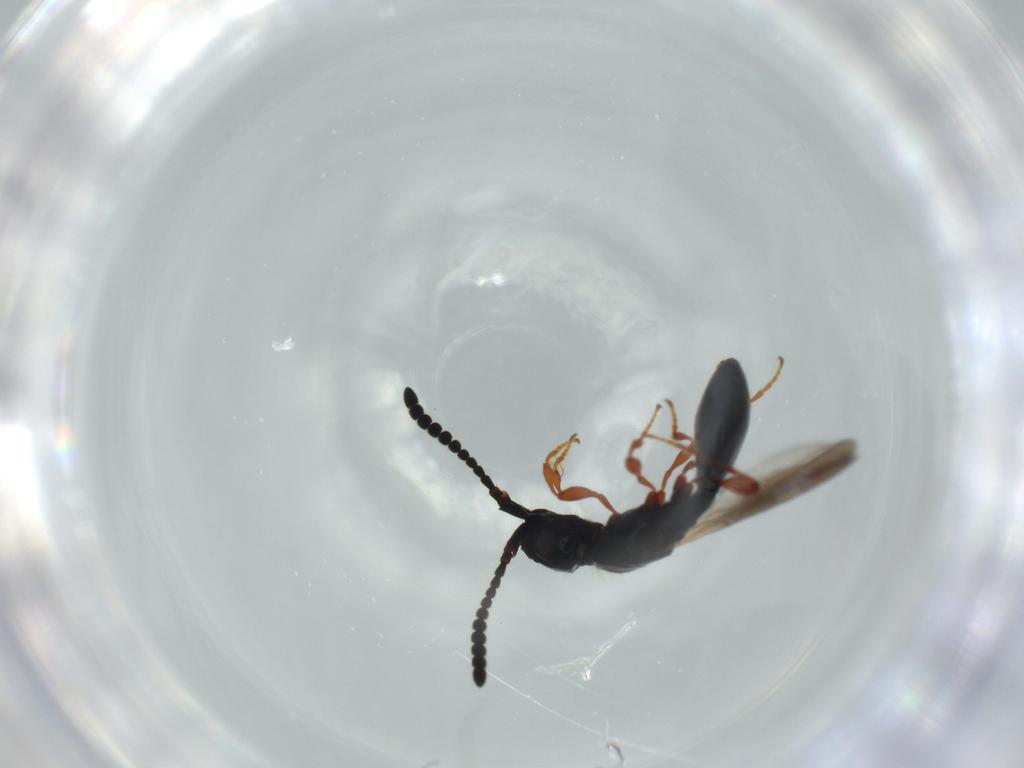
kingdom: Animalia
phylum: Arthropoda
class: Insecta
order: Hymenoptera
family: Diapriidae
